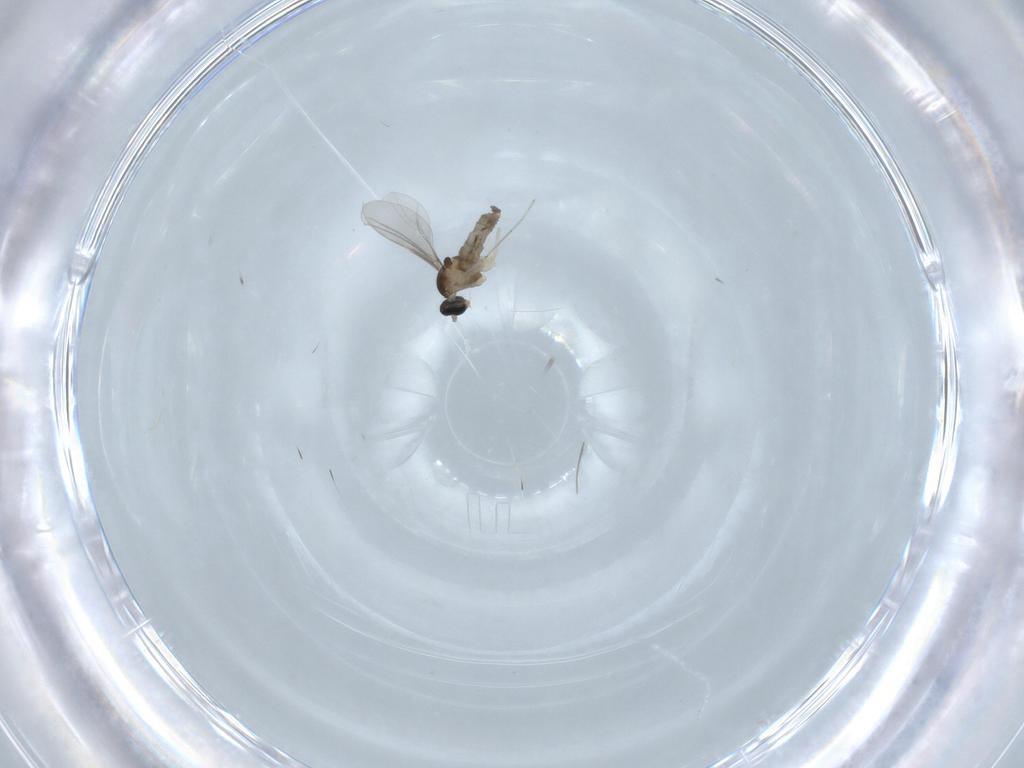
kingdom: Animalia
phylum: Arthropoda
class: Insecta
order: Diptera
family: Cecidomyiidae
